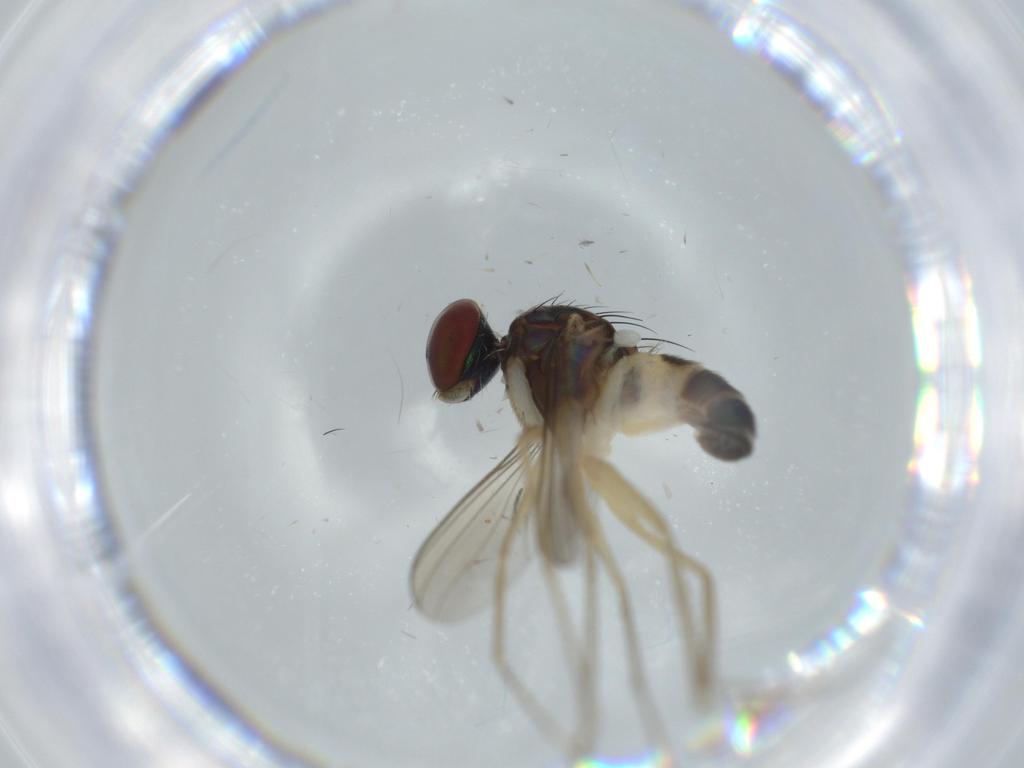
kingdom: Animalia
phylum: Arthropoda
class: Insecta
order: Diptera
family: Dolichopodidae
